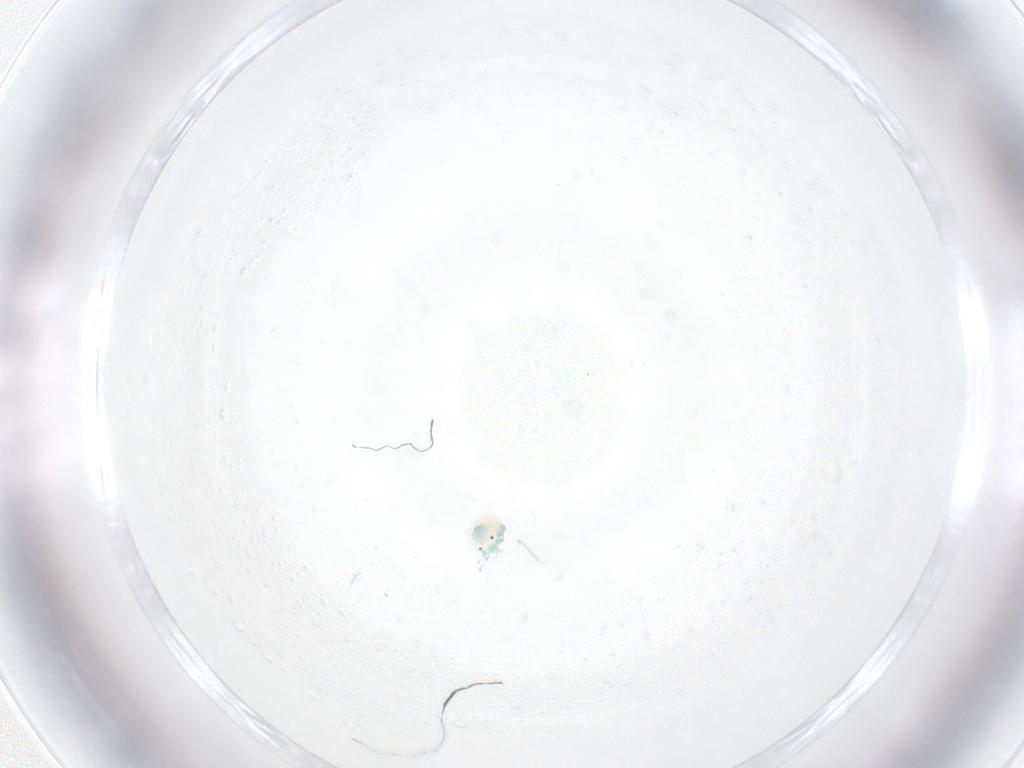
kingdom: Animalia
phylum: Arthropoda
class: Arachnida
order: Trombidiformes
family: Arrenuridae
